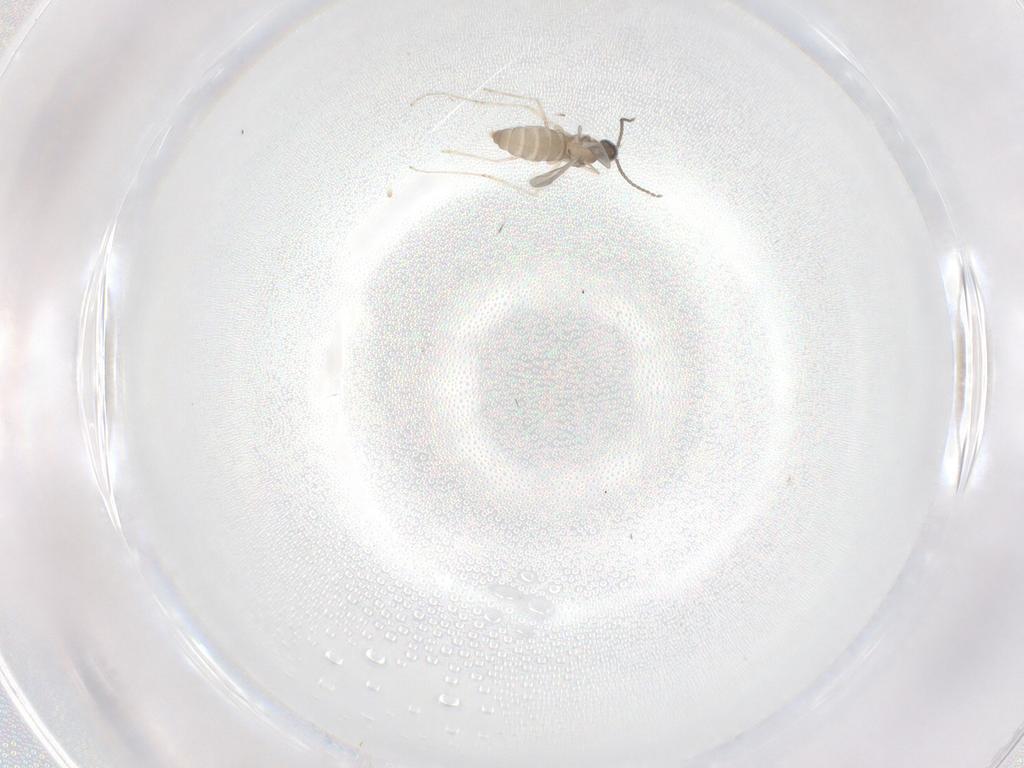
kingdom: Animalia
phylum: Arthropoda
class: Insecta
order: Diptera
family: Cecidomyiidae
